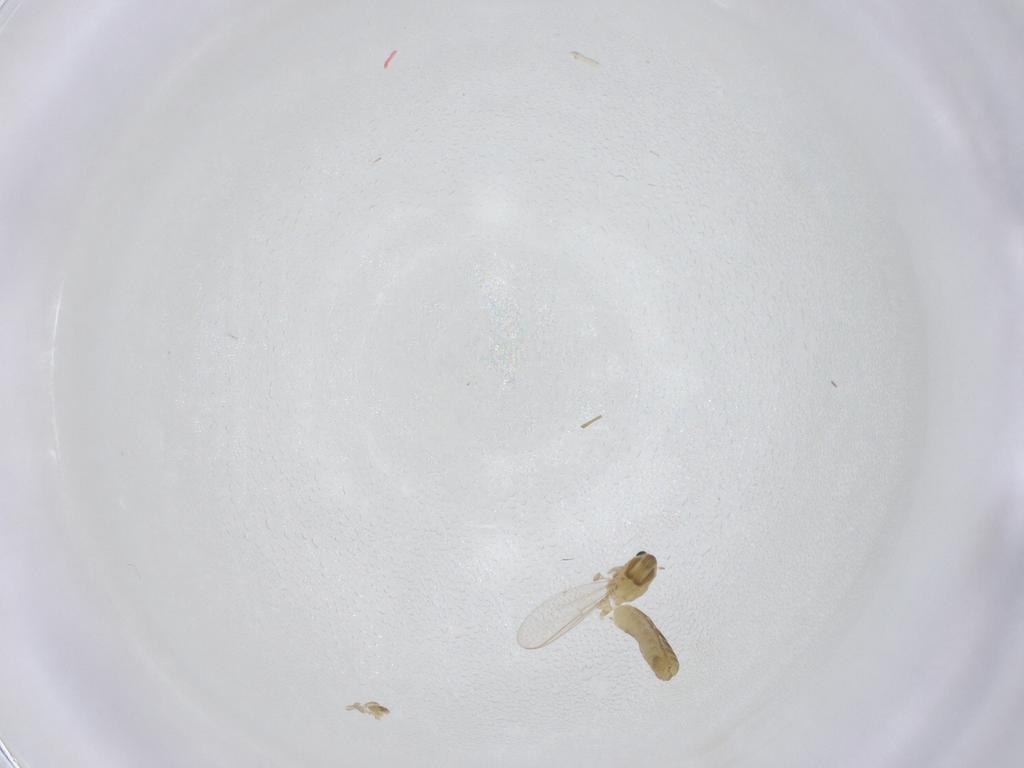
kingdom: Animalia
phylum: Arthropoda
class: Insecta
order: Diptera
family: Chironomidae
